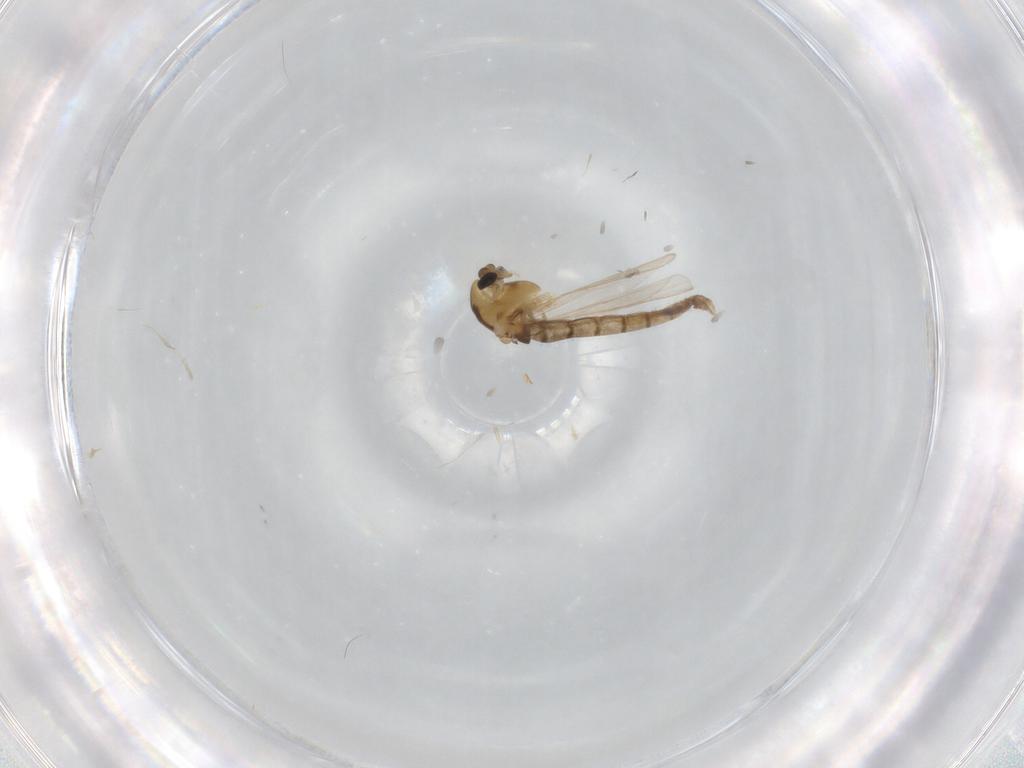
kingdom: Animalia
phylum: Arthropoda
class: Insecta
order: Diptera
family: Chironomidae
